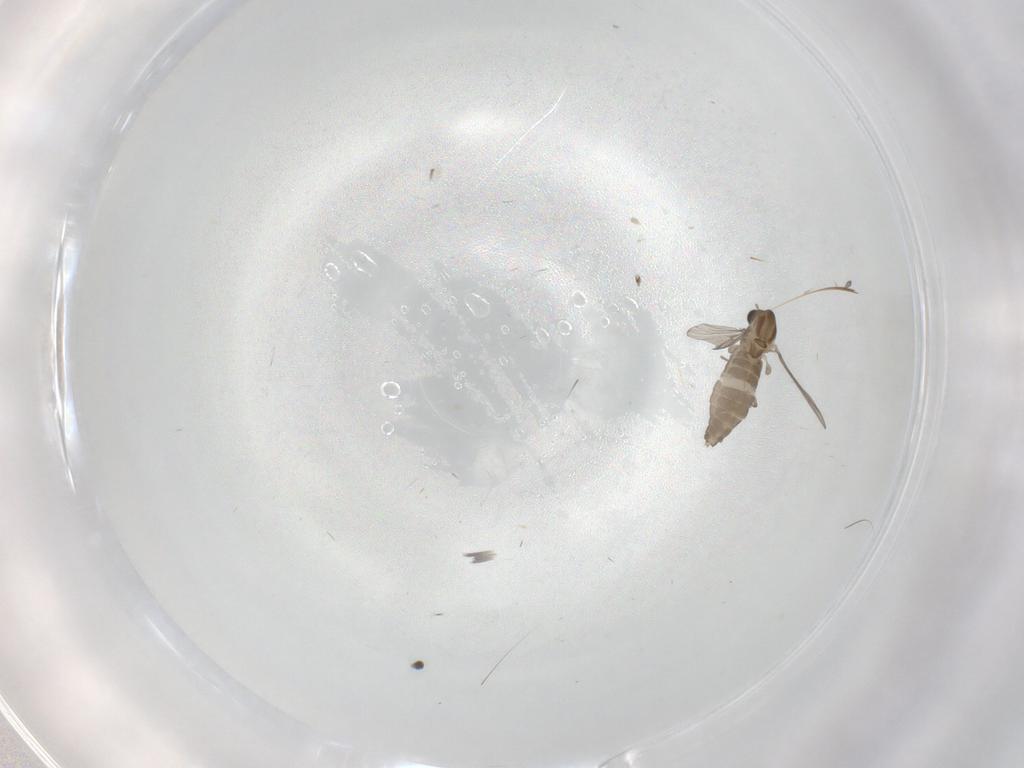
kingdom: Animalia
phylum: Arthropoda
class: Insecta
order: Diptera
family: Chironomidae
